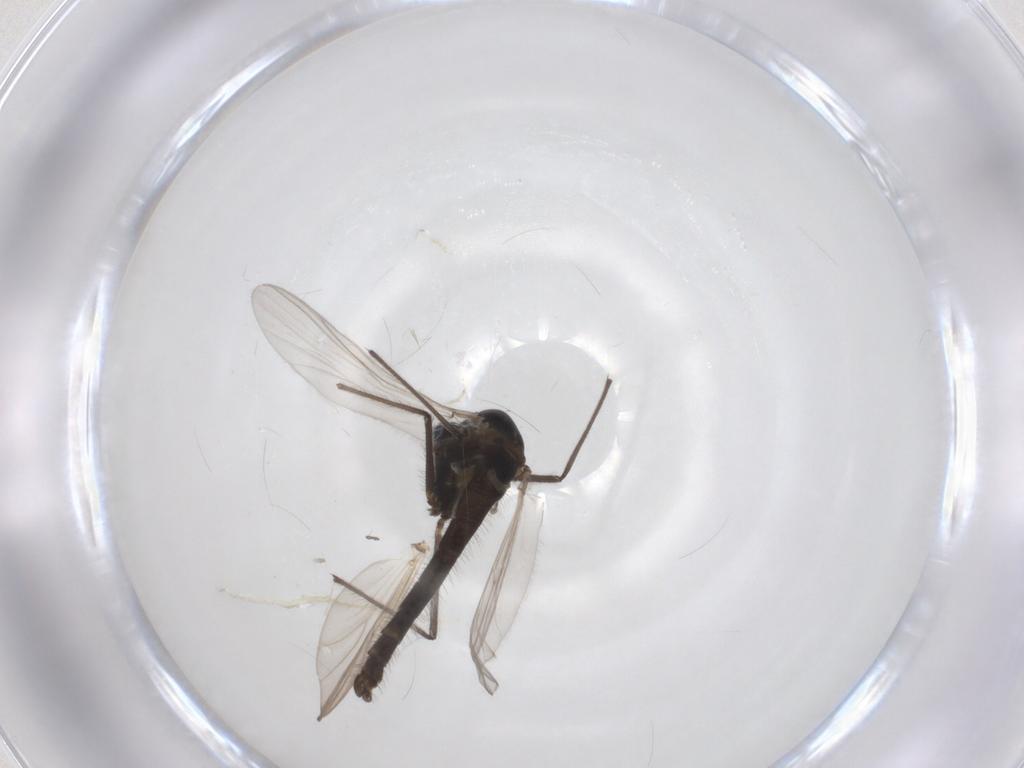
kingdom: Animalia
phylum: Arthropoda
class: Insecta
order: Diptera
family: Chironomidae
